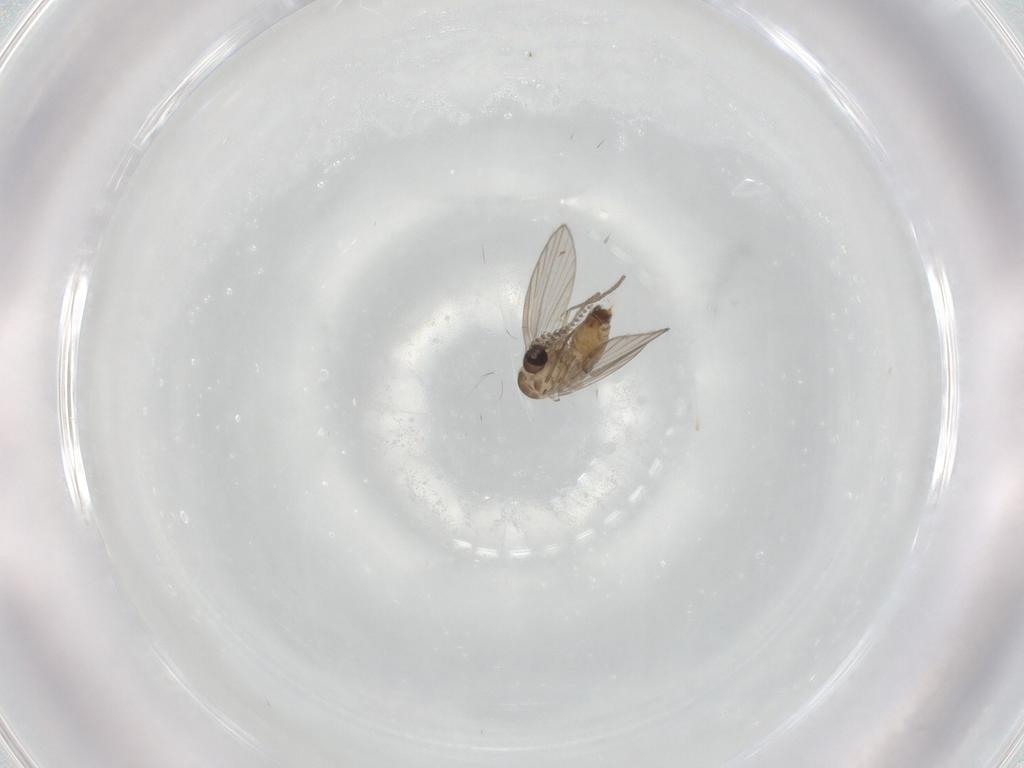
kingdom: Animalia
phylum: Arthropoda
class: Insecta
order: Diptera
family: Psychodidae
